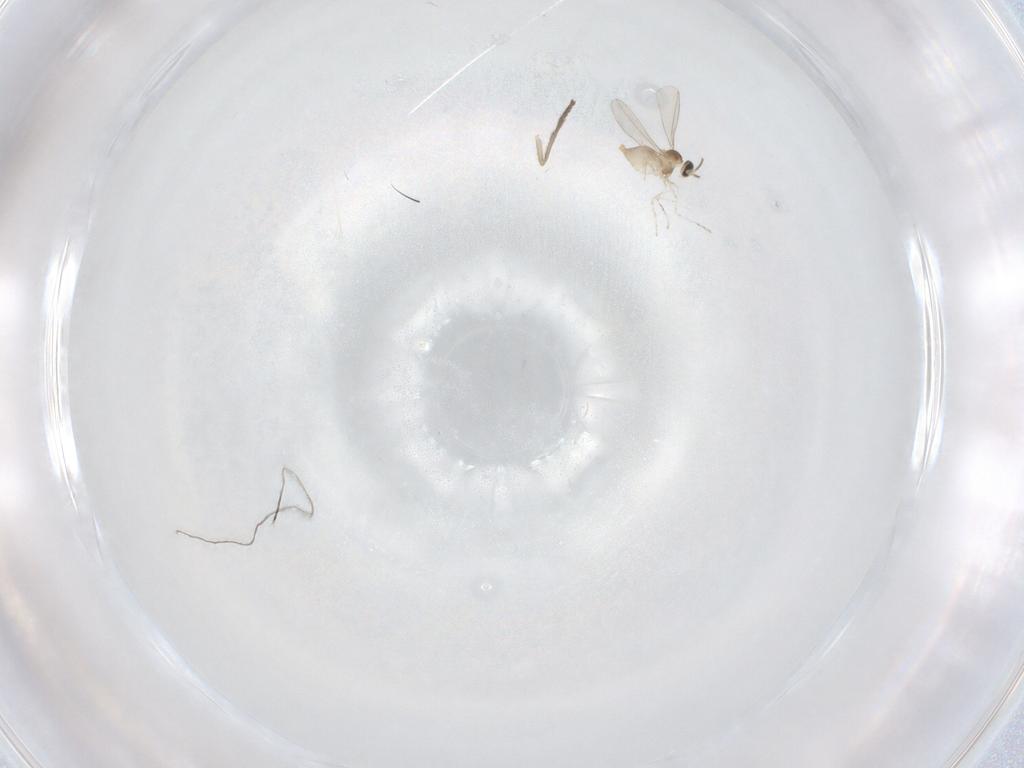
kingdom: Animalia
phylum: Arthropoda
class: Insecta
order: Diptera
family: Cecidomyiidae
